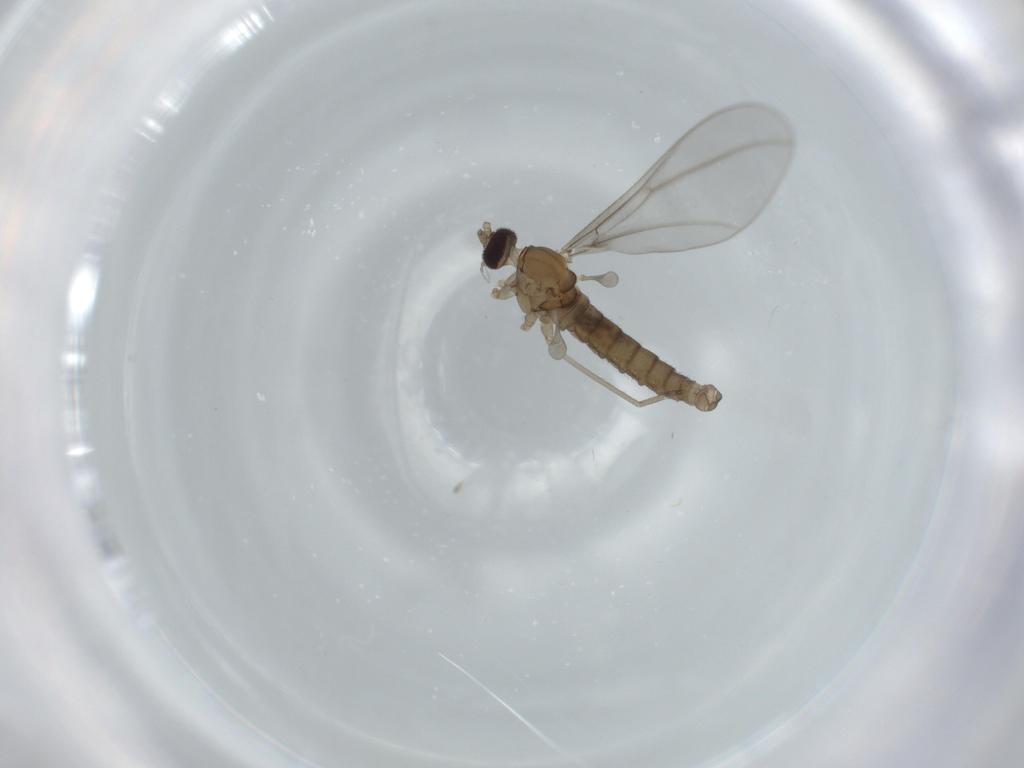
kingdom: Animalia
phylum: Arthropoda
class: Insecta
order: Diptera
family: Cecidomyiidae
